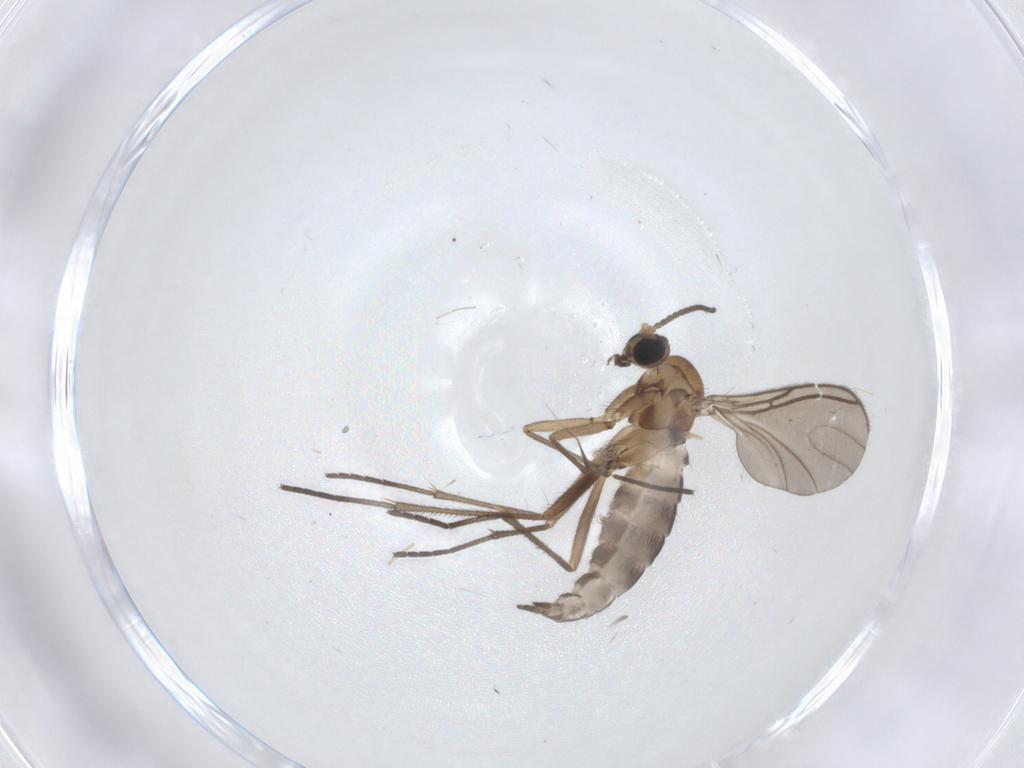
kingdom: Animalia
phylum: Arthropoda
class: Insecta
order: Diptera
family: Sciaridae
